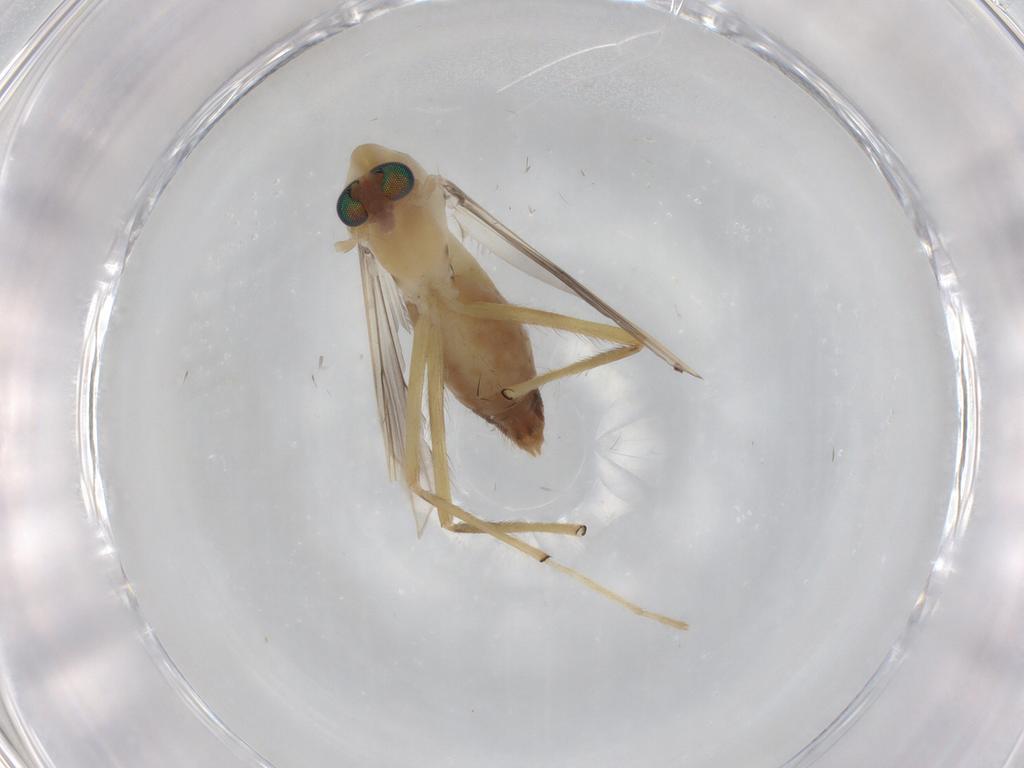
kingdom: Animalia
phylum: Arthropoda
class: Insecta
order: Diptera
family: Chironomidae
